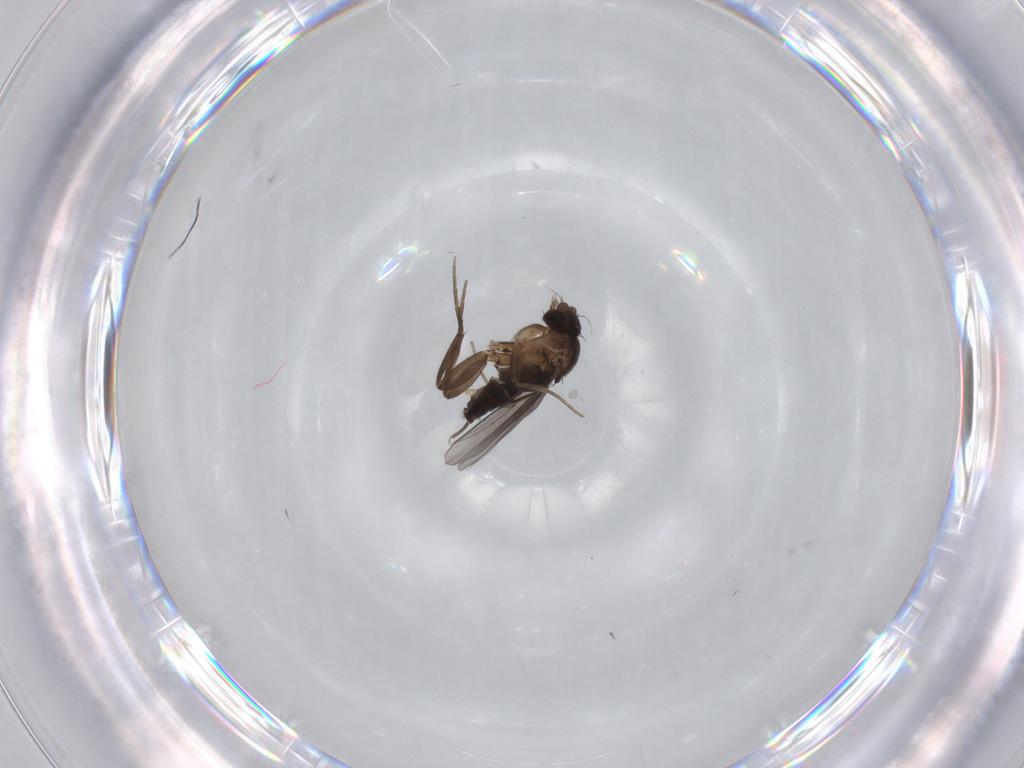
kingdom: Animalia
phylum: Arthropoda
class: Insecta
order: Diptera
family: Phoridae
